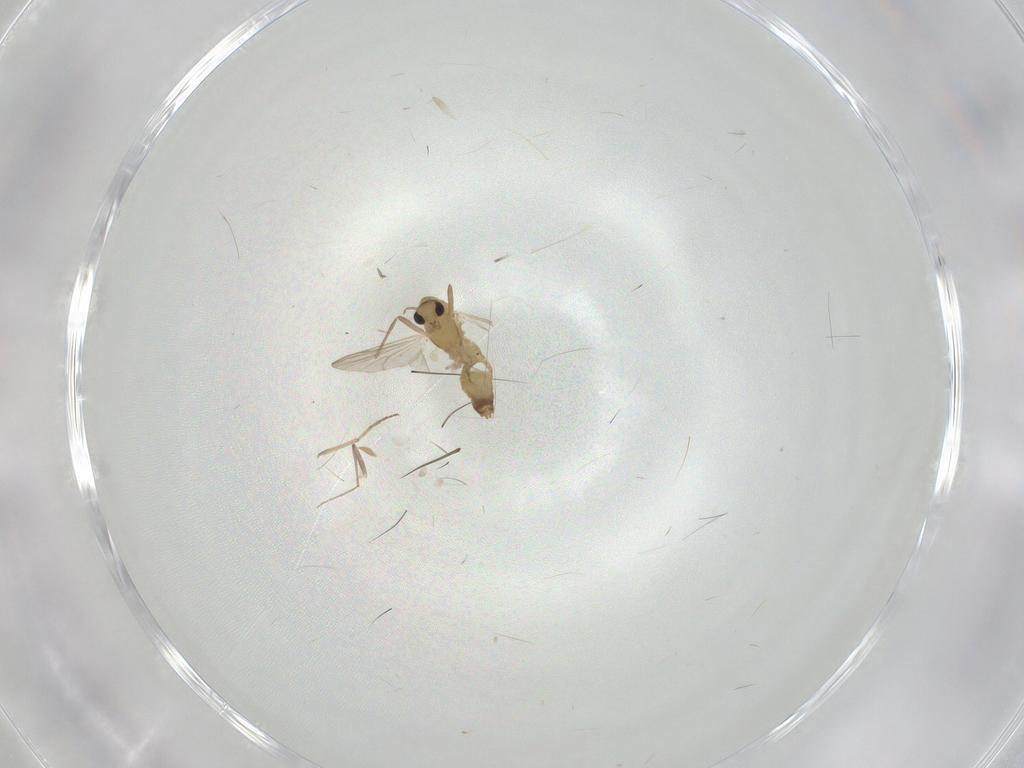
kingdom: Animalia
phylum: Arthropoda
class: Insecta
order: Diptera
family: Chironomidae
